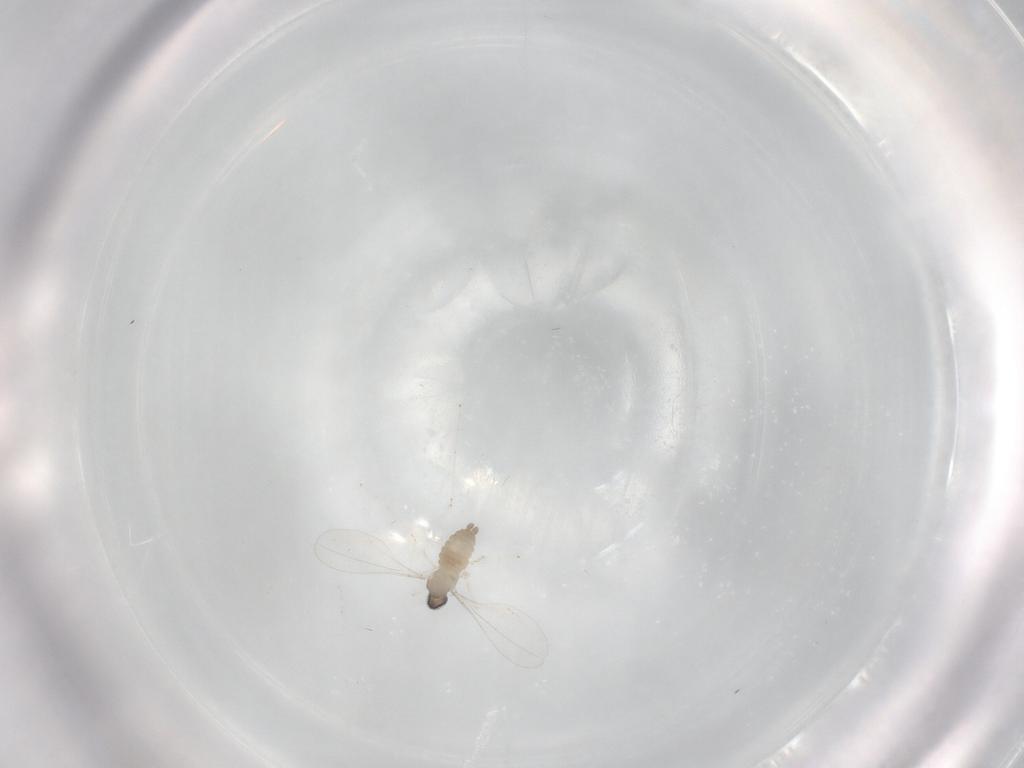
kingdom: Animalia
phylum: Arthropoda
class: Insecta
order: Diptera
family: Cecidomyiidae
